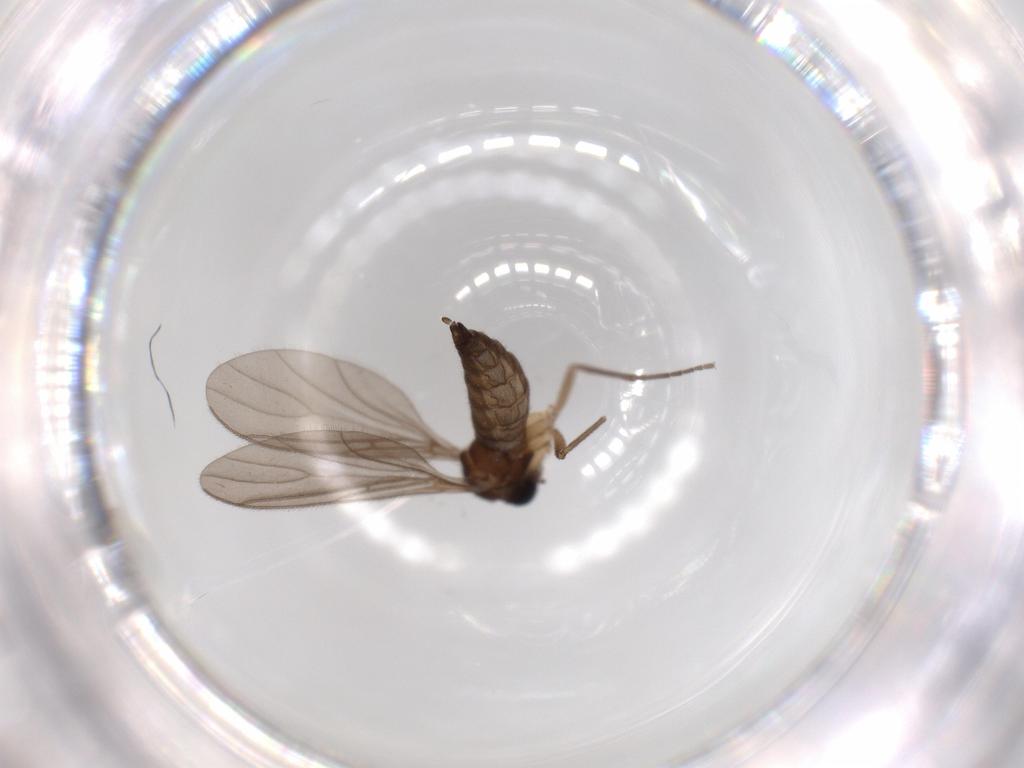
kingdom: Animalia
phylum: Arthropoda
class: Insecta
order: Diptera
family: Sciaridae
